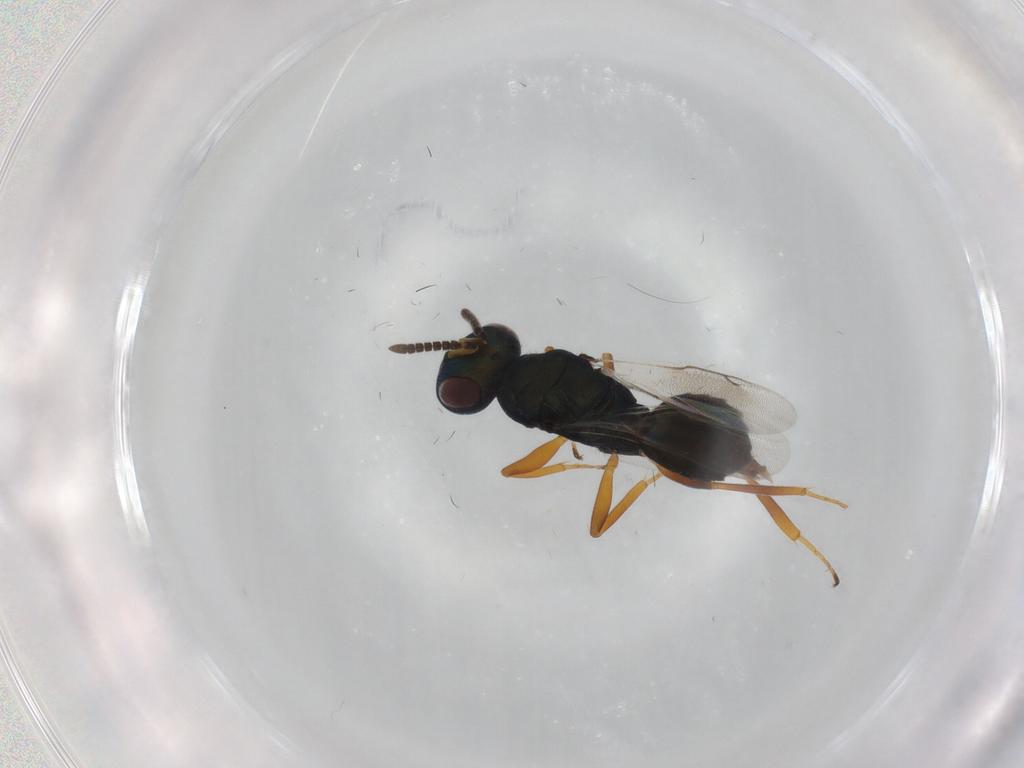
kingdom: Animalia
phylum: Arthropoda
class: Insecta
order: Hymenoptera
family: Pteromalidae
